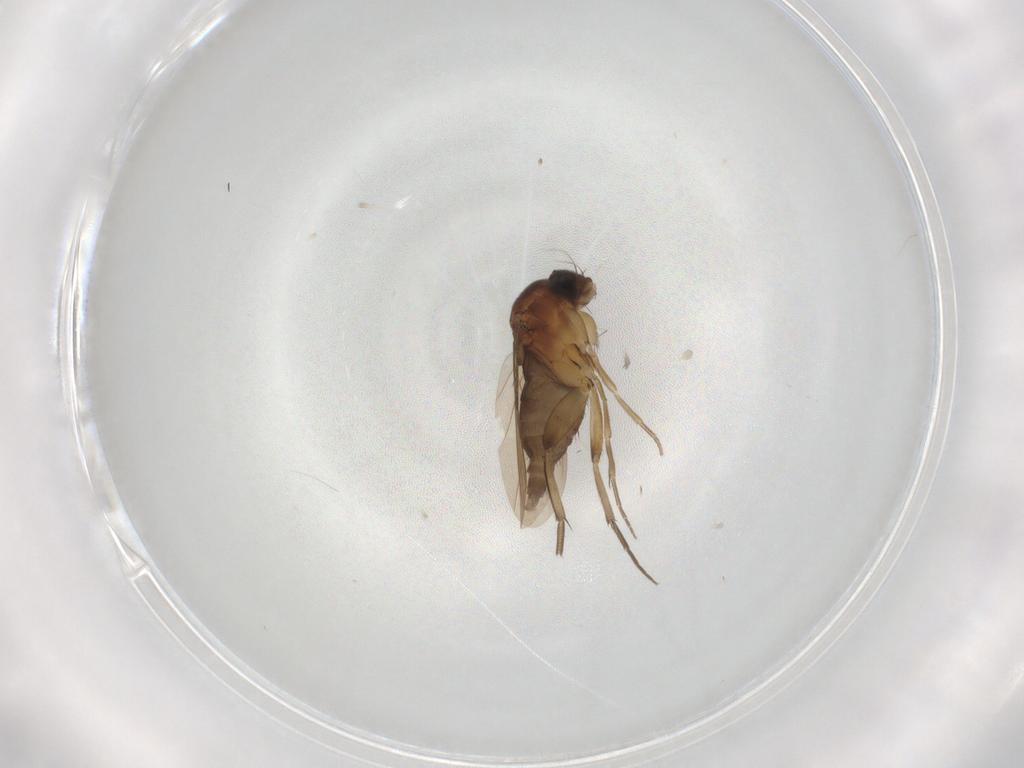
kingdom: Animalia
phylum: Arthropoda
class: Insecta
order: Diptera
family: Phoridae
